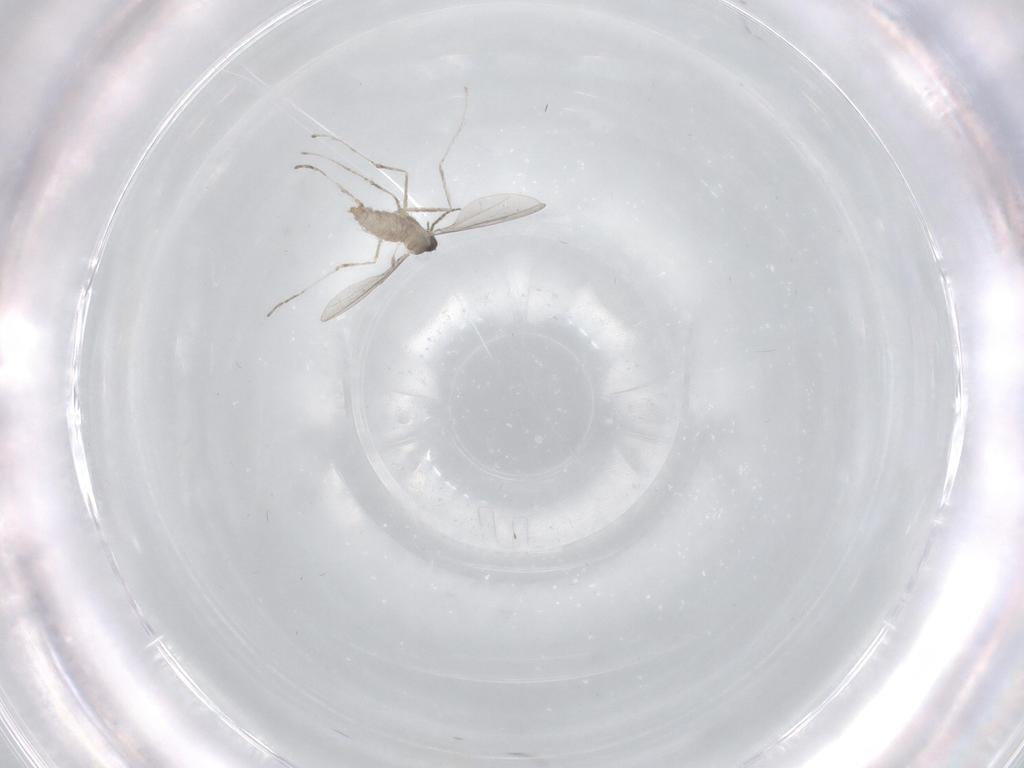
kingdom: Animalia
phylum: Arthropoda
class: Insecta
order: Diptera
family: Cecidomyiidae
